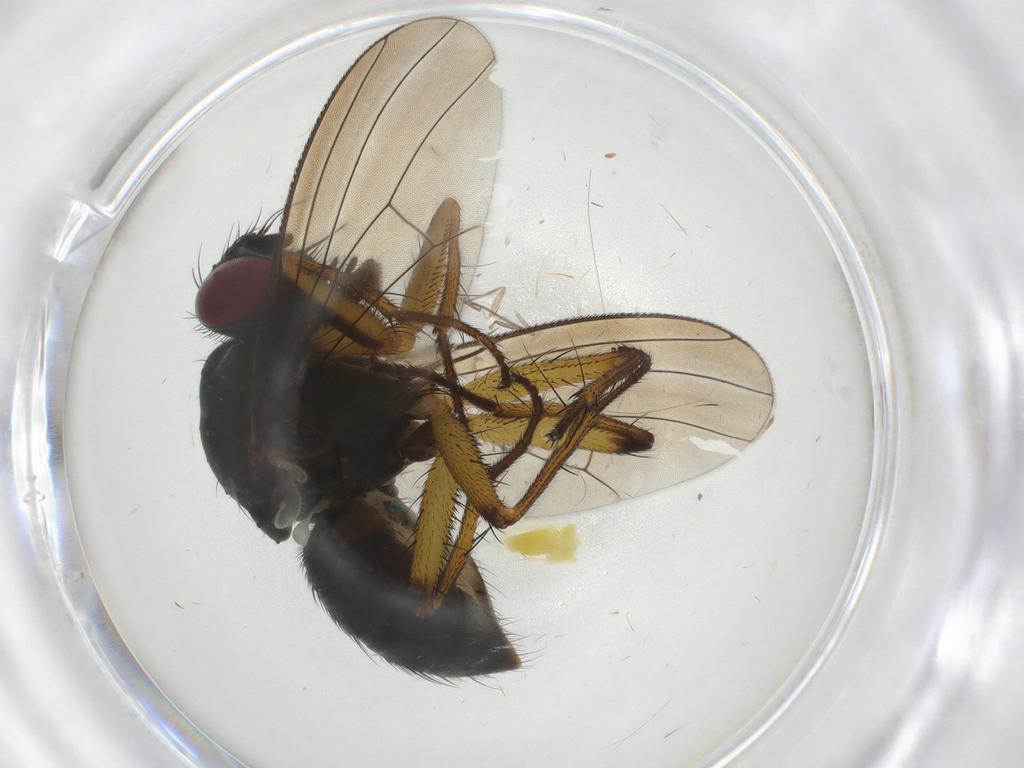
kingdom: Animalia
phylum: Arthropoda
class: Insecta
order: Diptera
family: Muscidae
